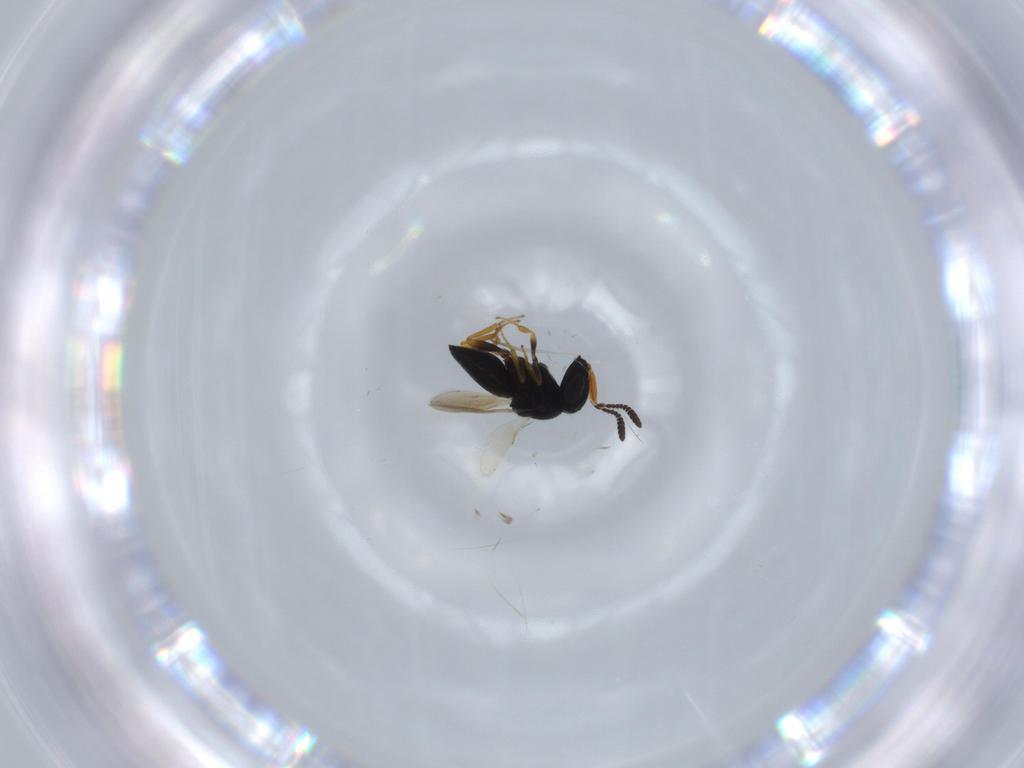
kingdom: Animalia
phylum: Arthropoda
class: Insecta
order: Hymenoptera
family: Scelionidae
